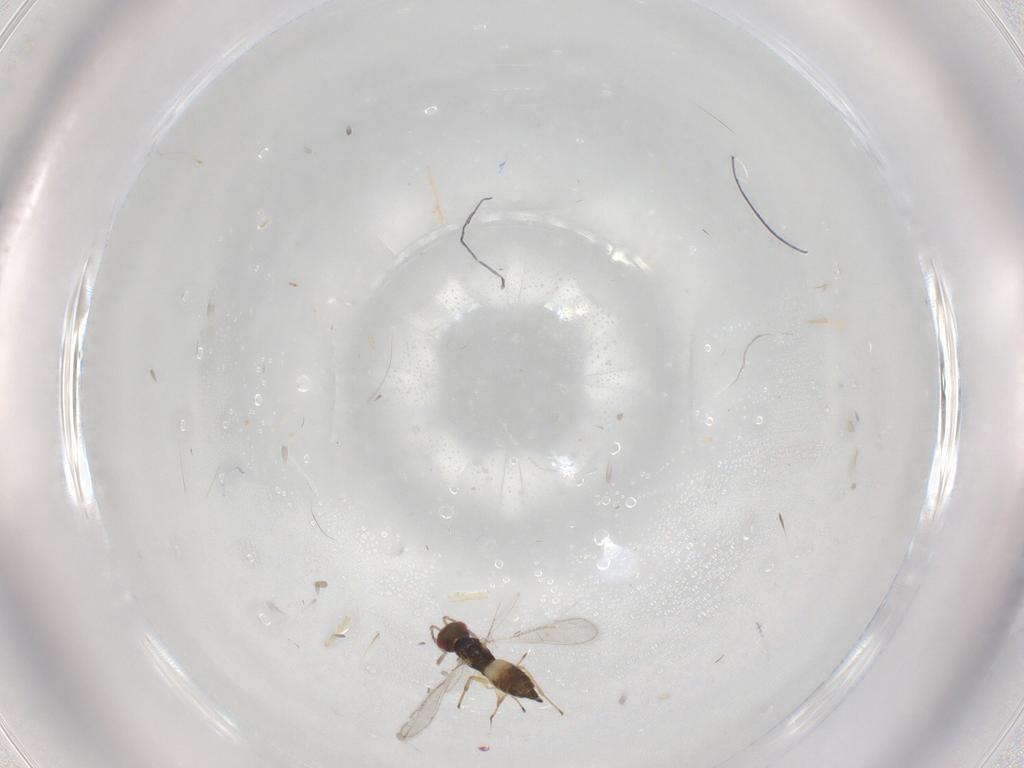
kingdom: Animalia
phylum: Arthropoda
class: Insecta
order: Hymenoptera
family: Eulophidae
